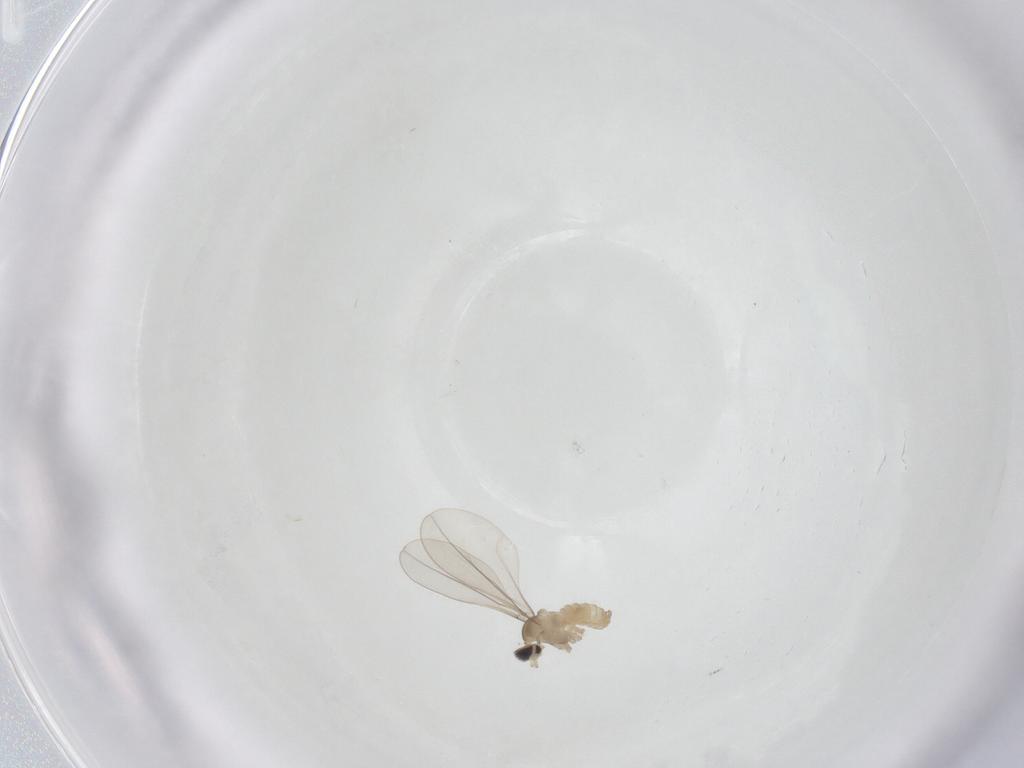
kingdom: Animalia
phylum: Arthropoda
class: Insecta
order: Diptera
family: Cecidomyiidae
